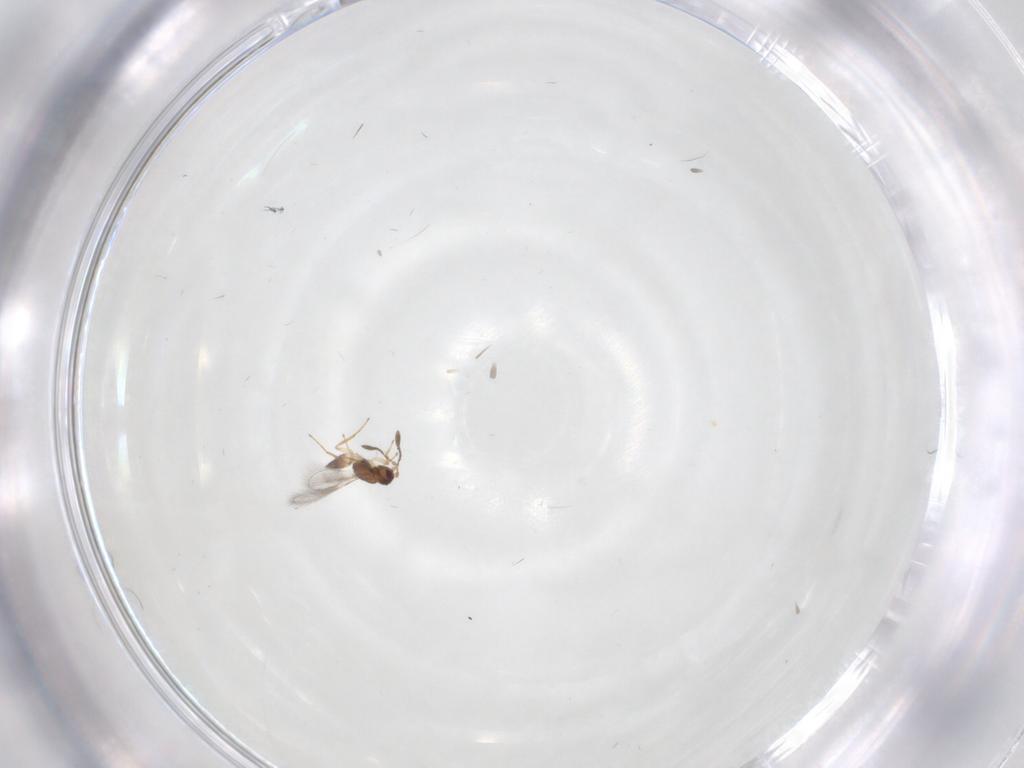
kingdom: Animalia
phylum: Arthropoda
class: Insecta
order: Hymenoptera
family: Mymaridae
